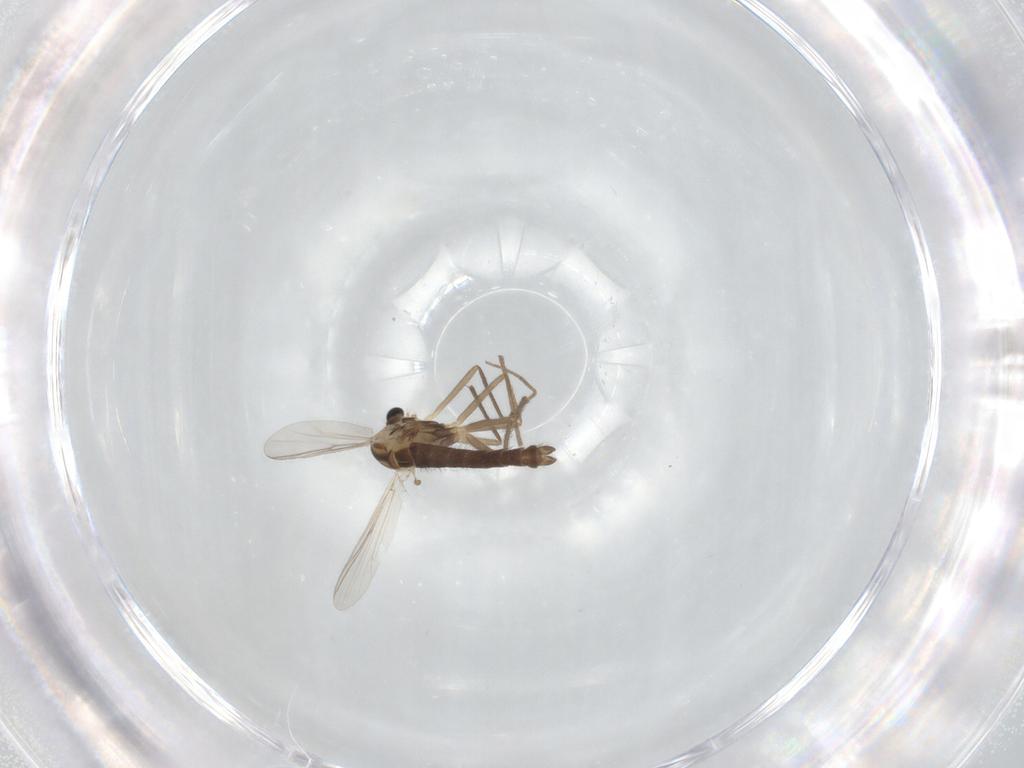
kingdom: Animalia
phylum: Arthropoda
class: Insecta
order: Diptera
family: Chironomidae
